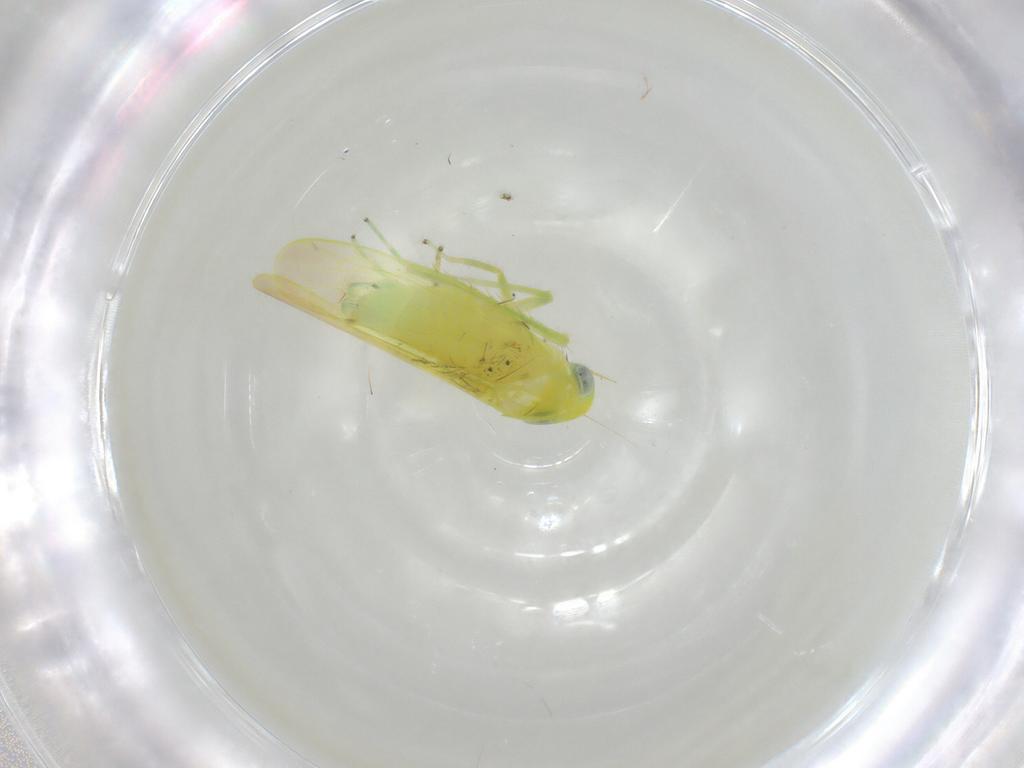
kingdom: Animalia
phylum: Arthropoda
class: Insecta
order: Hemiptera
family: Cicadellidae
